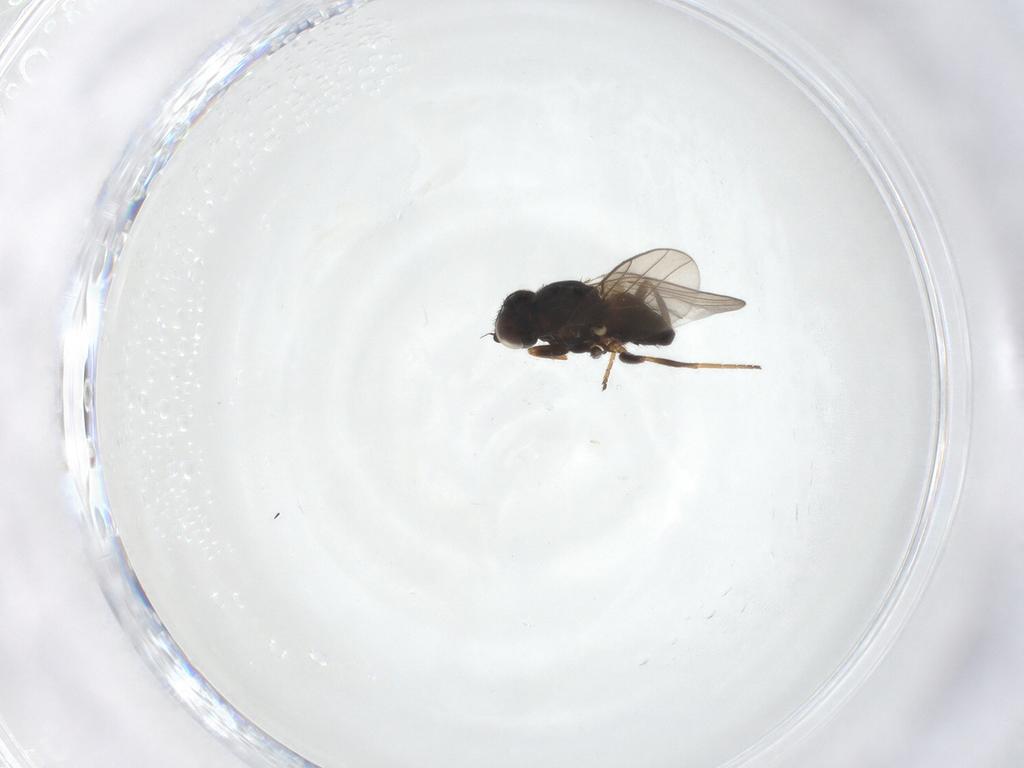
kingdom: Animalia
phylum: Arthropoda
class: Insecta
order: Diptera
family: Chloropidae
